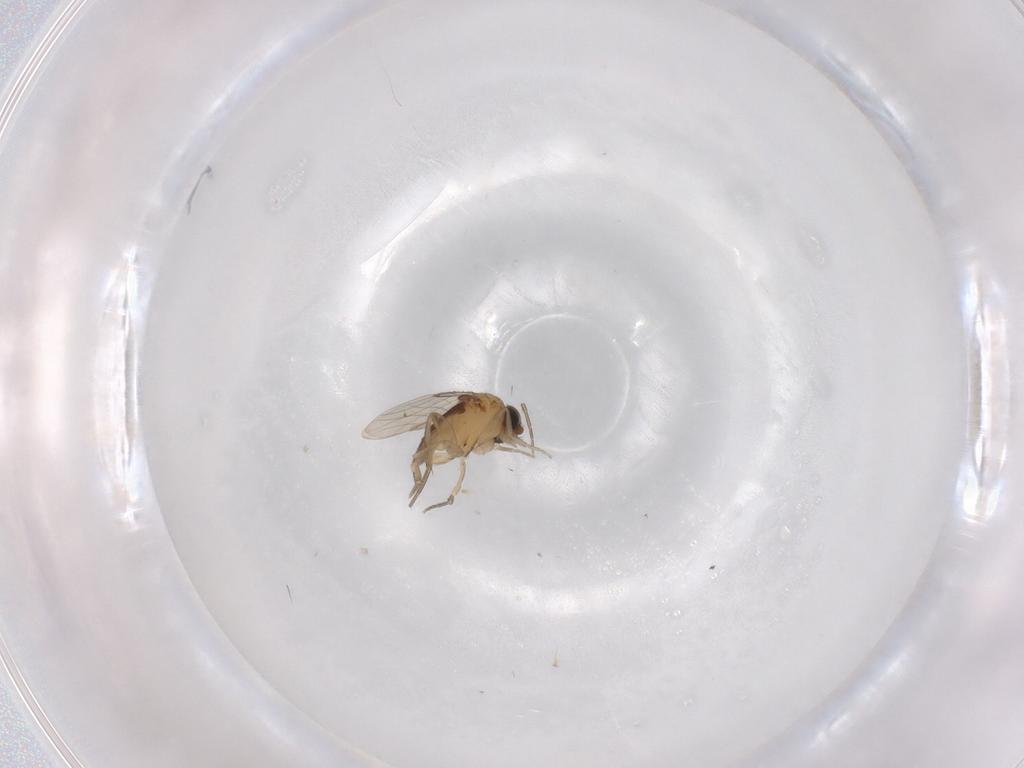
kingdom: Animalia
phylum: Arthropoda
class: Insecta
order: Diptera
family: Phoridae
